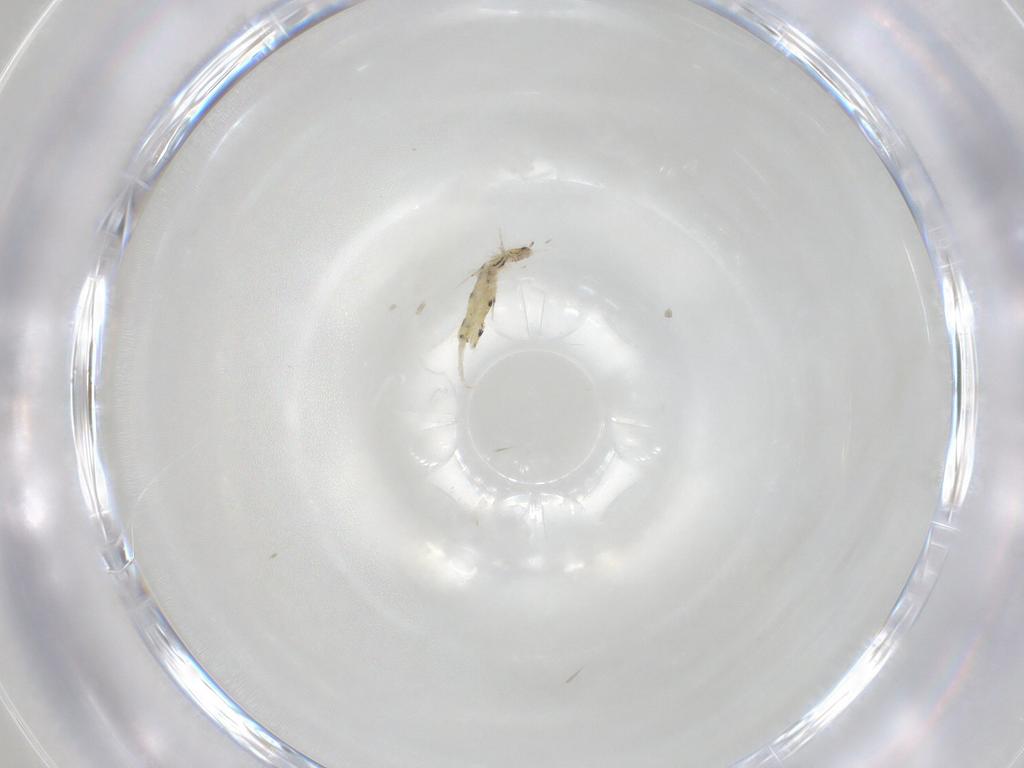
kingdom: Animalia
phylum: Arthropoda
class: Collembola
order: Entomobryomorpha
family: Entomobryidae
